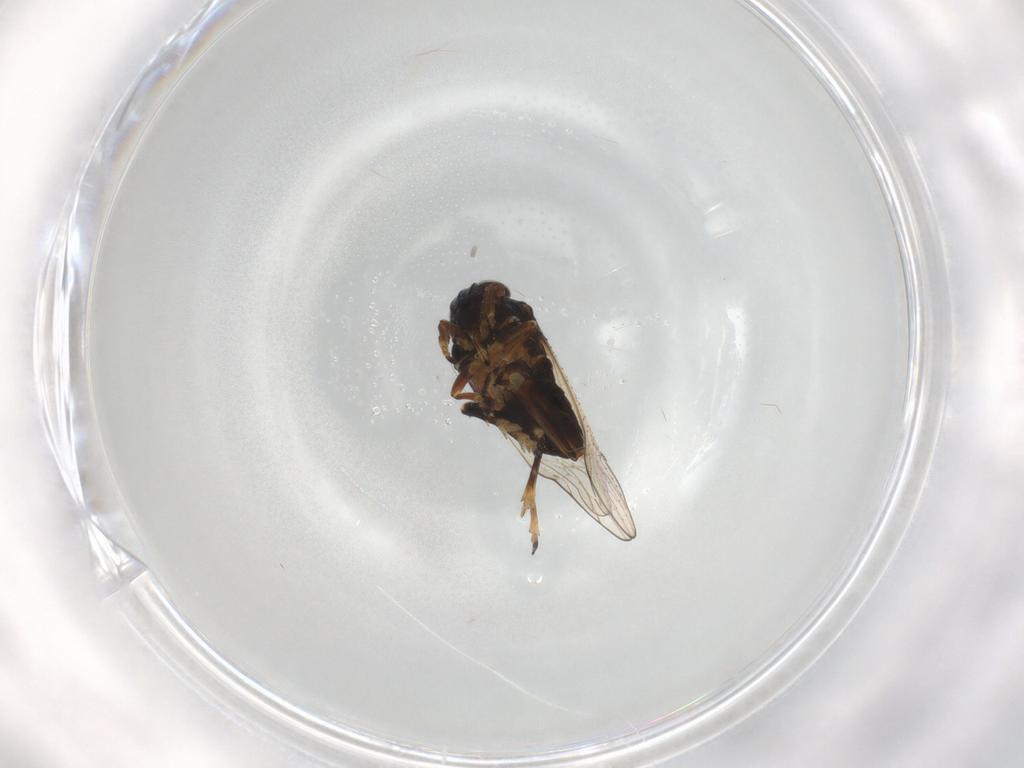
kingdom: Animalia
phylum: Arthropoda
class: Insecta
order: Hemiptera
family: Delphacidae
